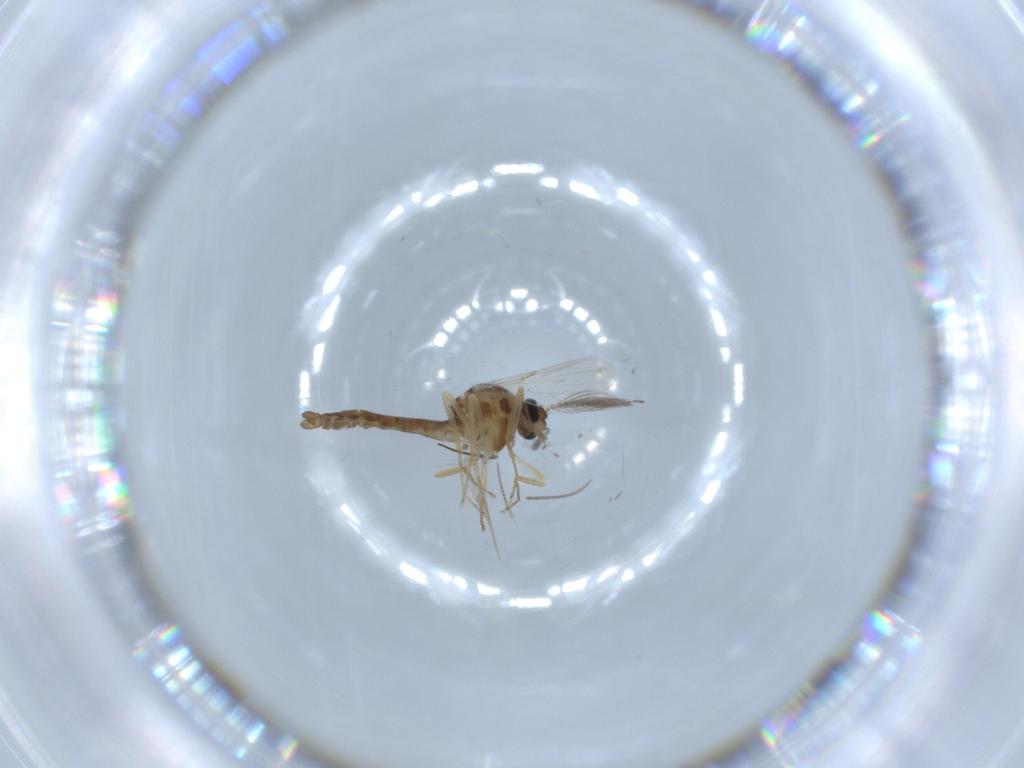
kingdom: Animalia
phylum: Arthropoda
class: Insecta
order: Diptera
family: Ceratopogonidae
